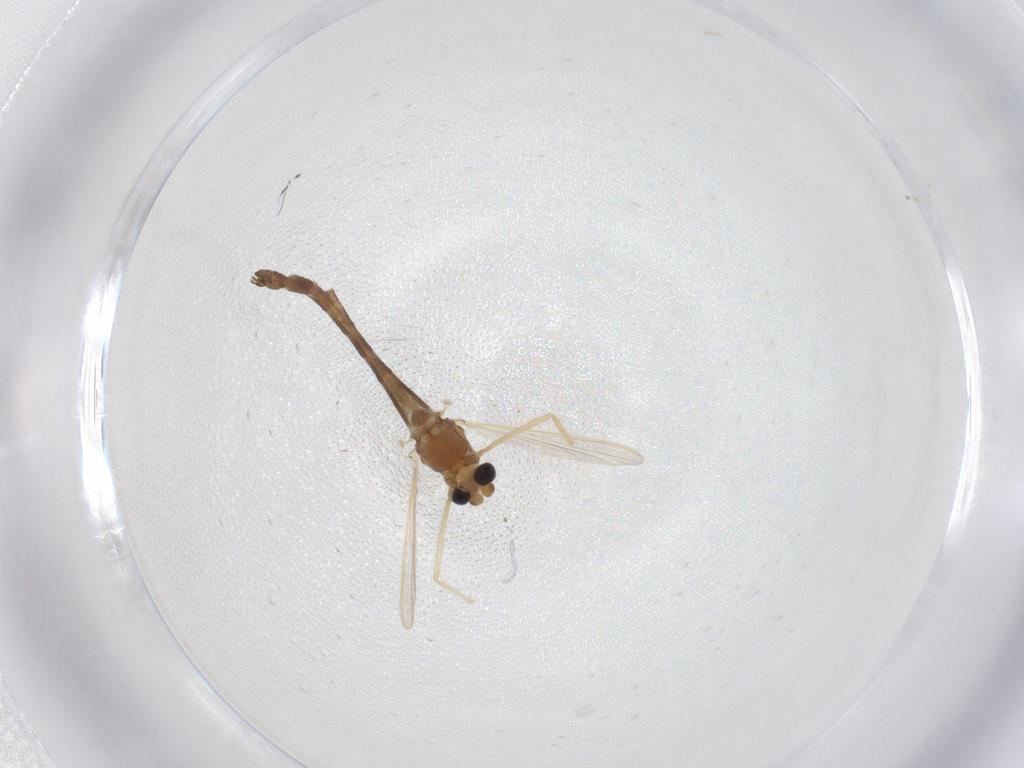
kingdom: Animalia
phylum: Arthropoda
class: Insecta
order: Diptera
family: Chironomidae
